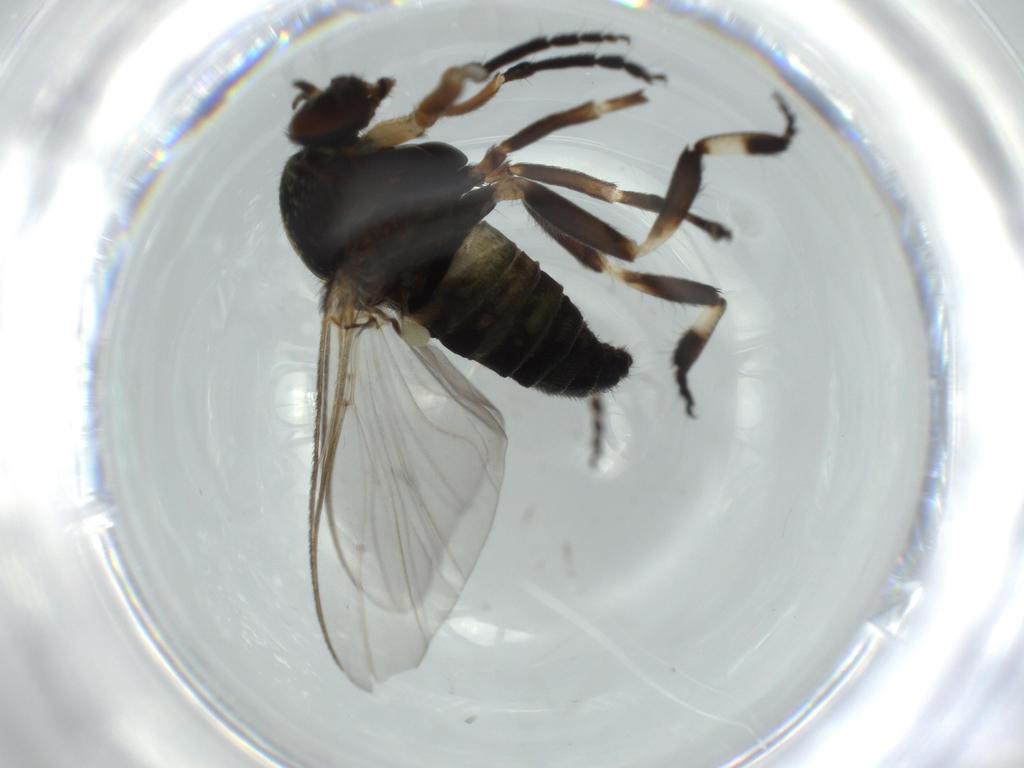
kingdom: Animalia
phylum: Arthropoda
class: Insecta
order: Diptera
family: Cecidomyiidae
